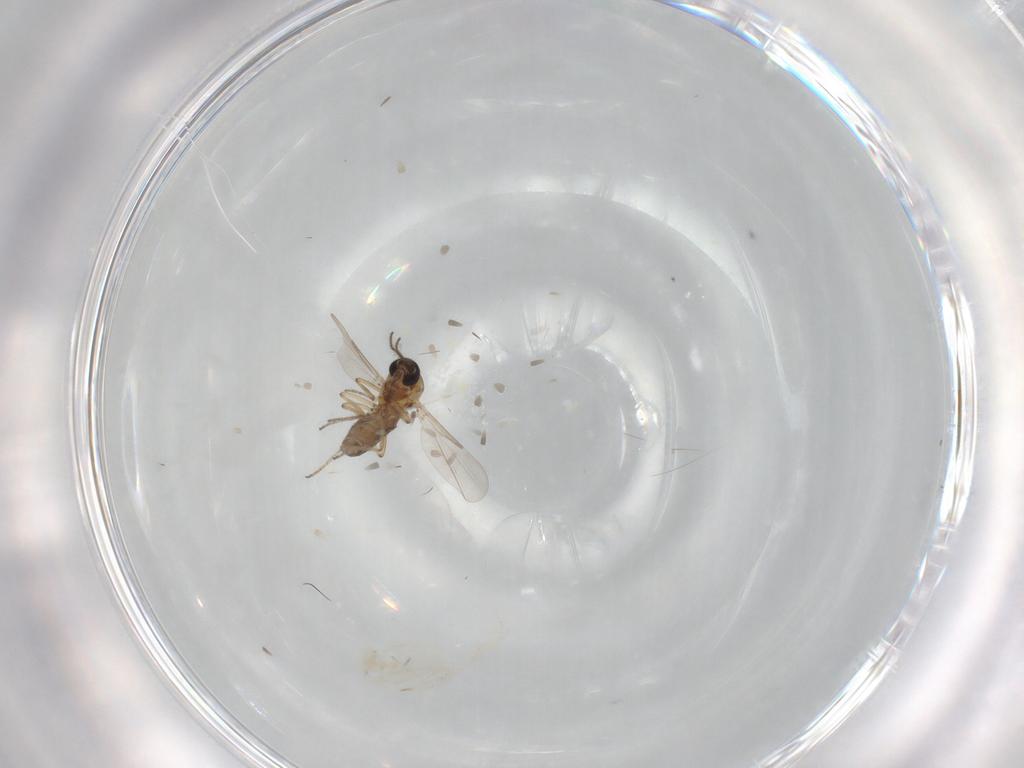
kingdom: Animalia
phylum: Arthropoda
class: Insecta
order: Diptera
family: Ceratopogonidae
